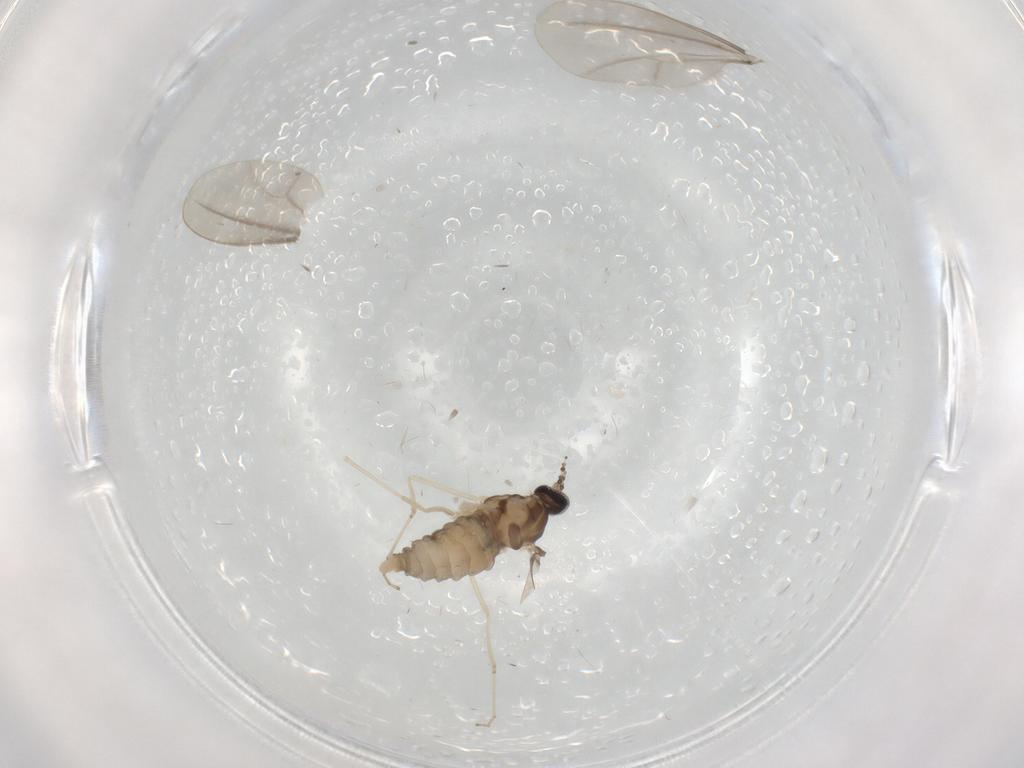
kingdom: Animalia
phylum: Arthropoda
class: Insecta
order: Diptera
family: Cecidomyiidae
